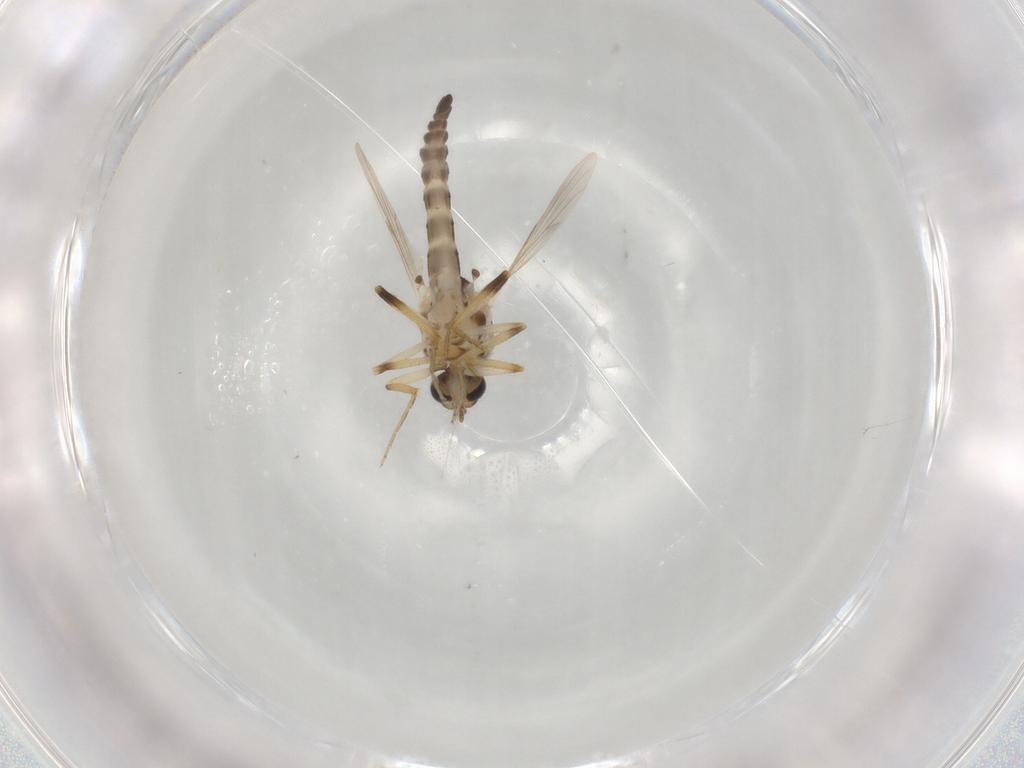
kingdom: Animalia
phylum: Arthropoda
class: Insecta
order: Diptera
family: Ceratopogonidae
